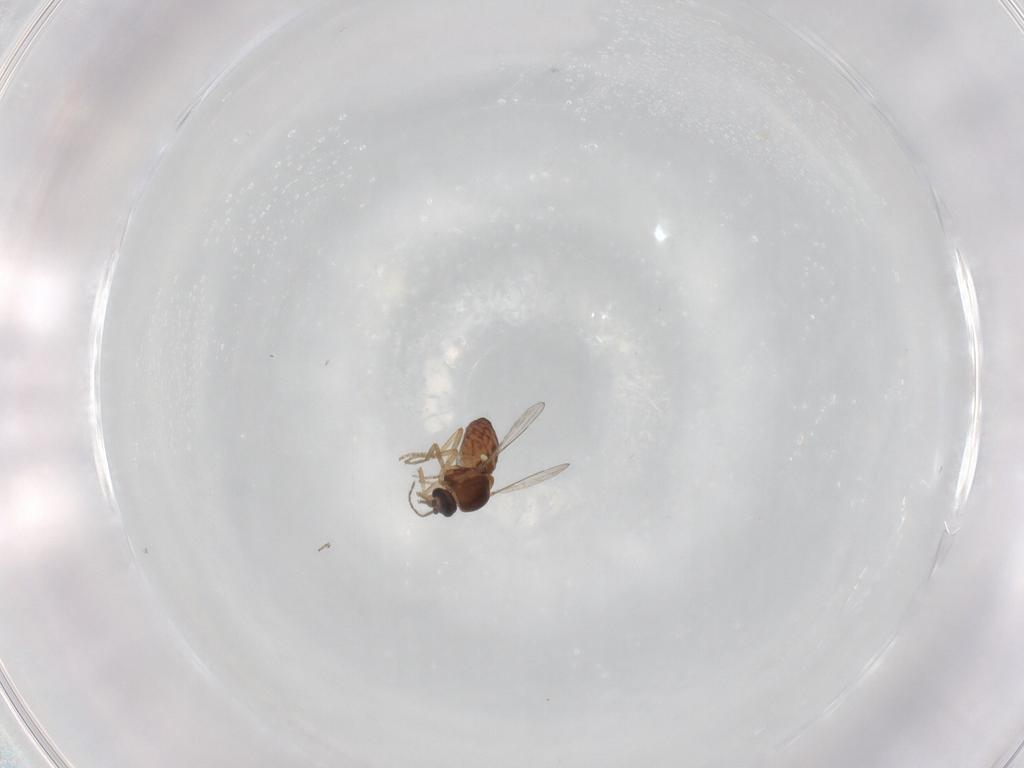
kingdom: Animalia
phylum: Arthropoda
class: Insecta
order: Diptera
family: Ceratopogonidae
